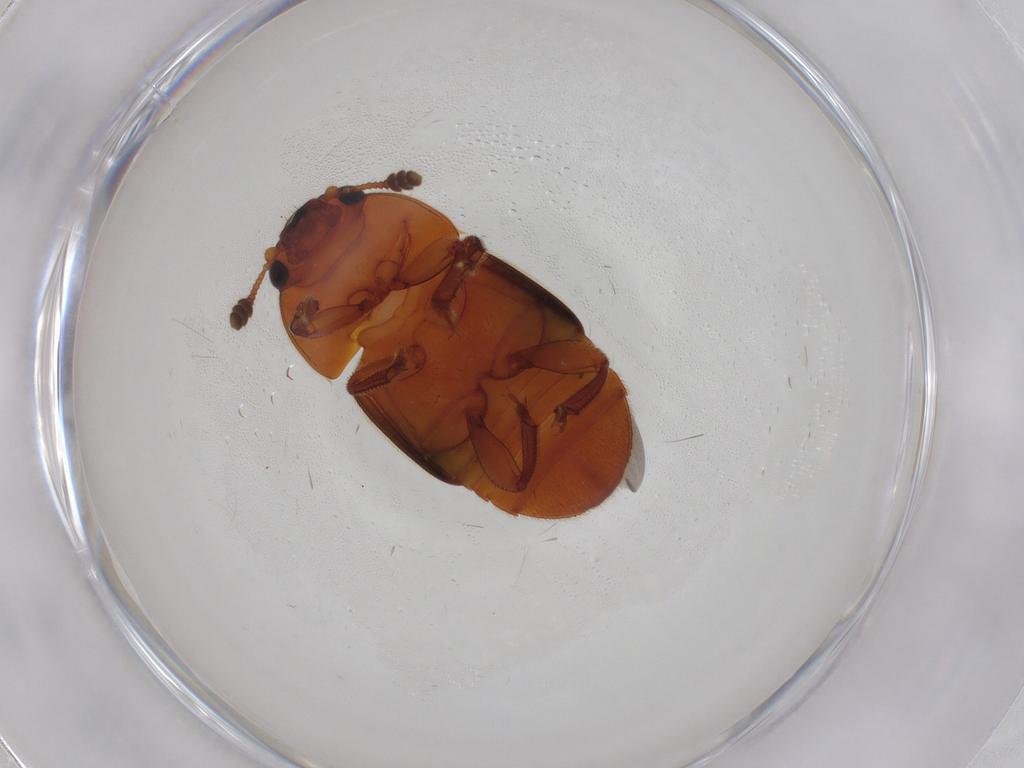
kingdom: Animalia
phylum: Arthropoda
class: Insecta
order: Coleoptera
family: Nitidulidae
